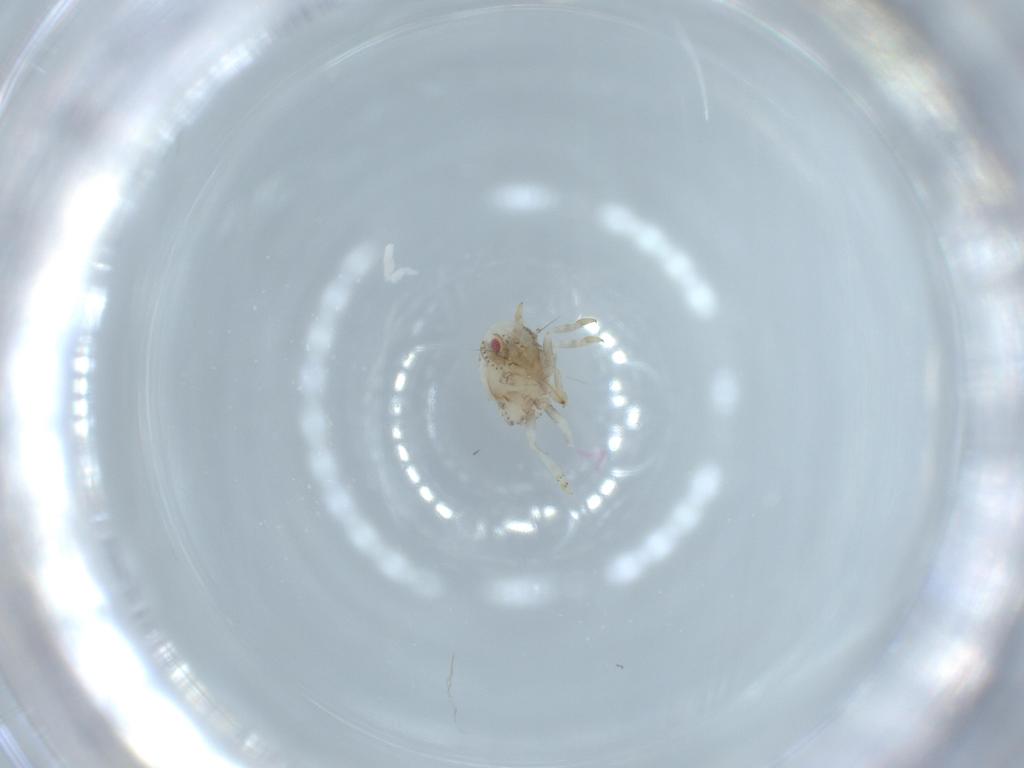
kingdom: Animalia
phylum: Arthropoda
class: Insecta
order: Hemiptera
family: Acanaloniidae
